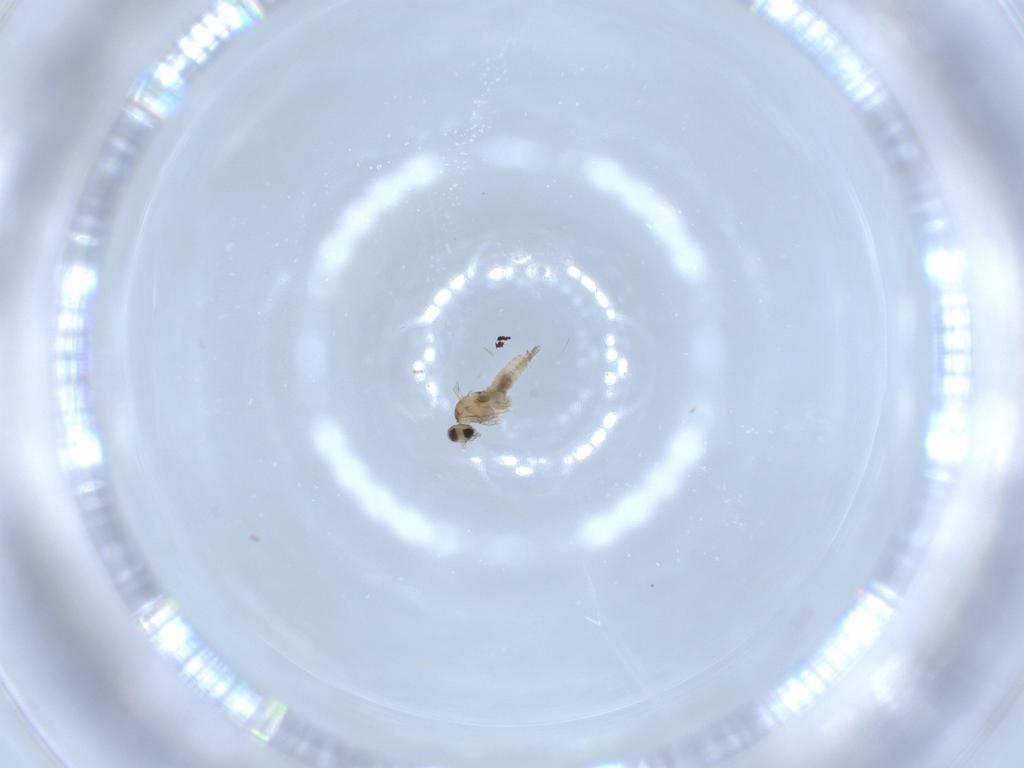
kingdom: Animalia
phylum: Arthropoda
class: Insecta
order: Diptera
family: Cecidomyiidae
